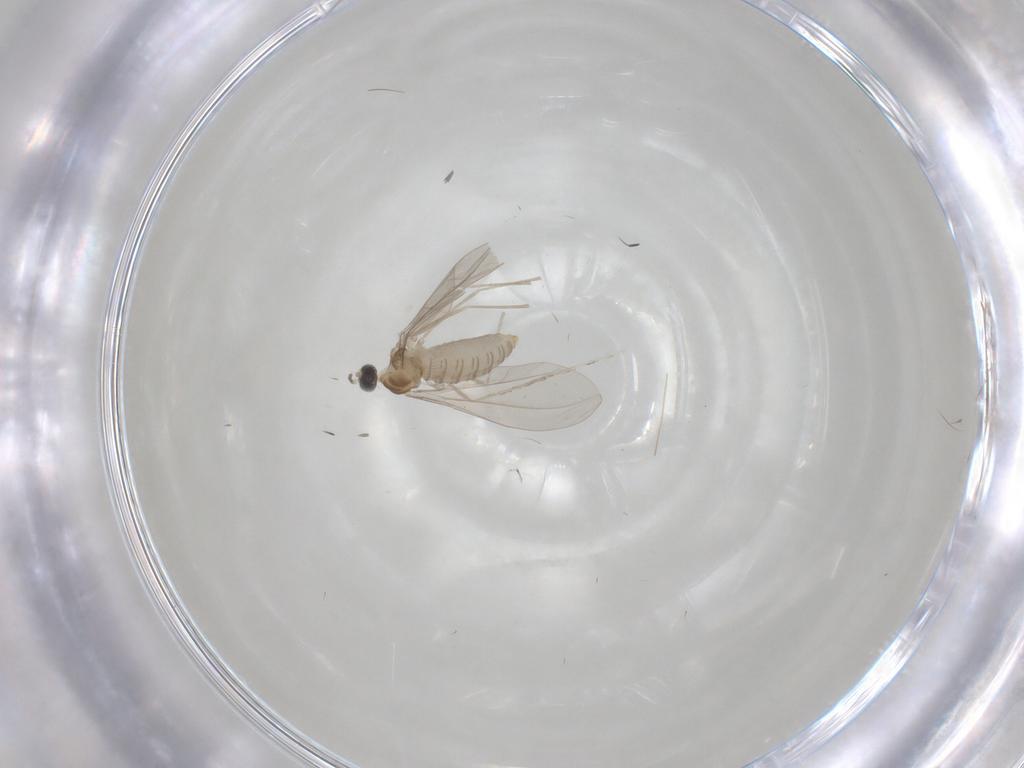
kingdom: Animalia
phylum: Arthropoda
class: Insecta
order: Diptera
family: Cecidomyiidae
